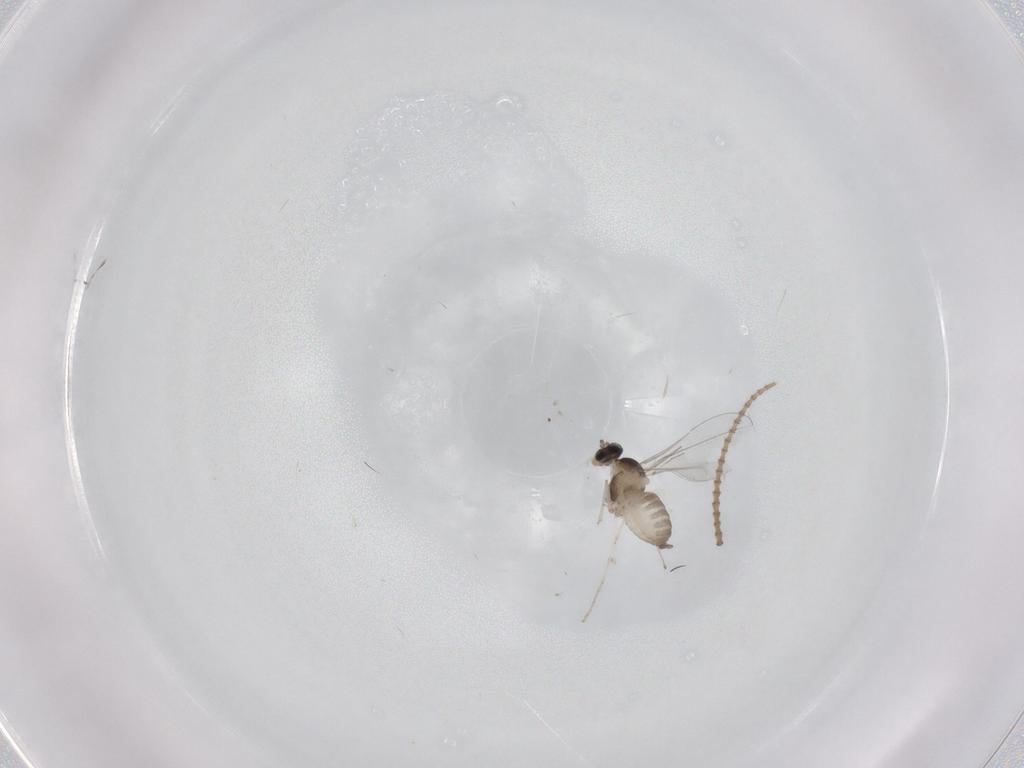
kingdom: Animalia
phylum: Arthropoda
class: Insecta
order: Diptera
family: Cecidomyiidae
